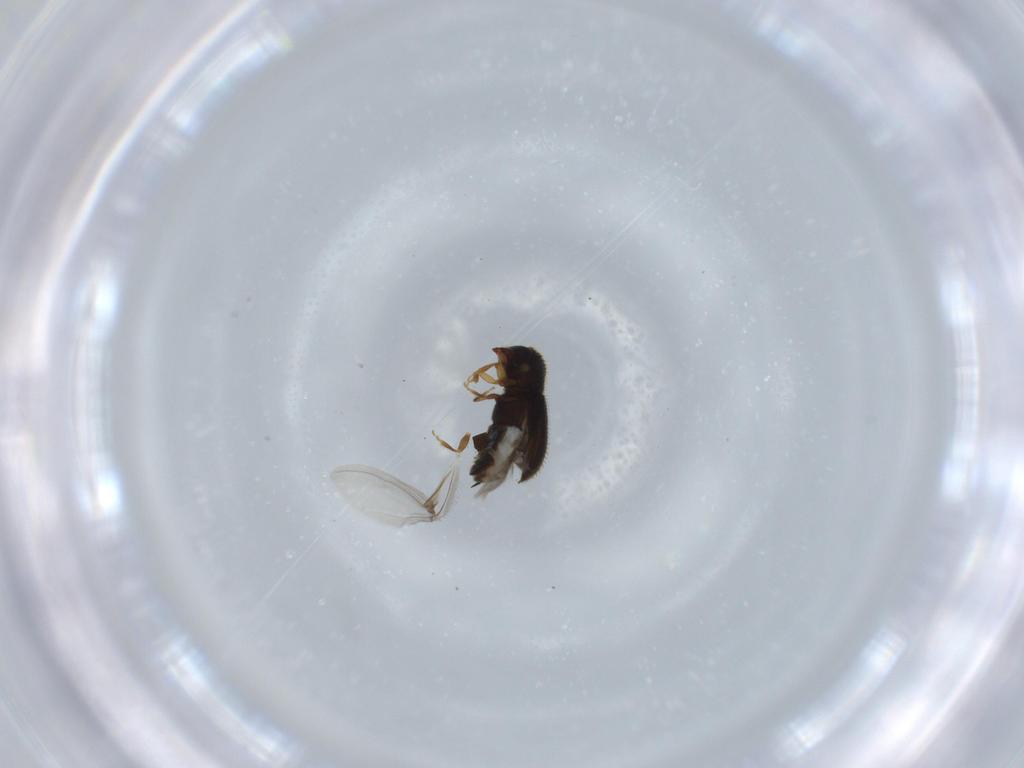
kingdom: Animalia
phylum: Arthropoda
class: Insecta
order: Coleoptera
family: Curculionidae
